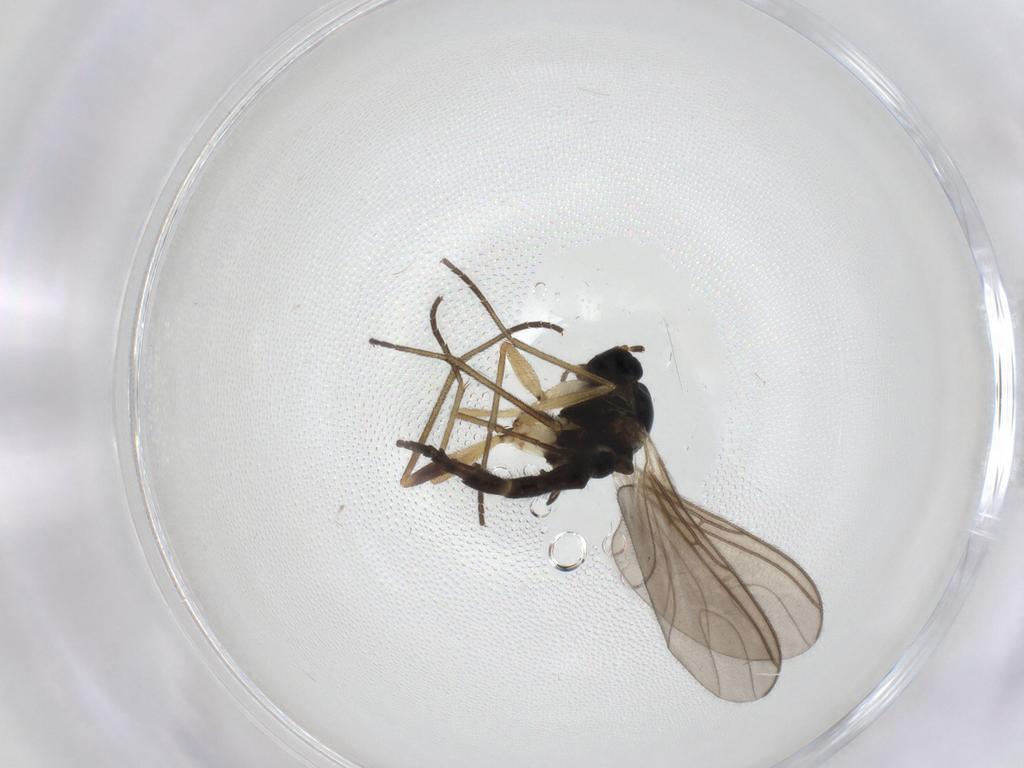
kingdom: Animalia
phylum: Arthropoda
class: Insecta
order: Diptera
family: Sciaridae
